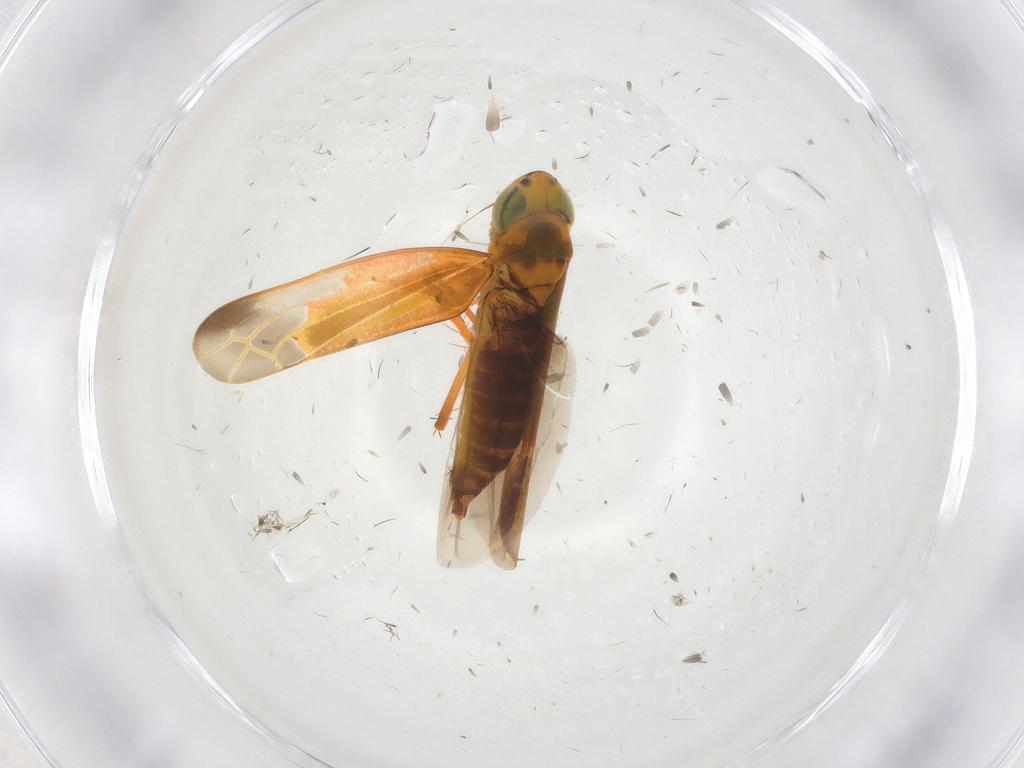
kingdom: Animalia
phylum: Arthropoda
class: Insecta
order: Hemiptera
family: Cicadellidae
